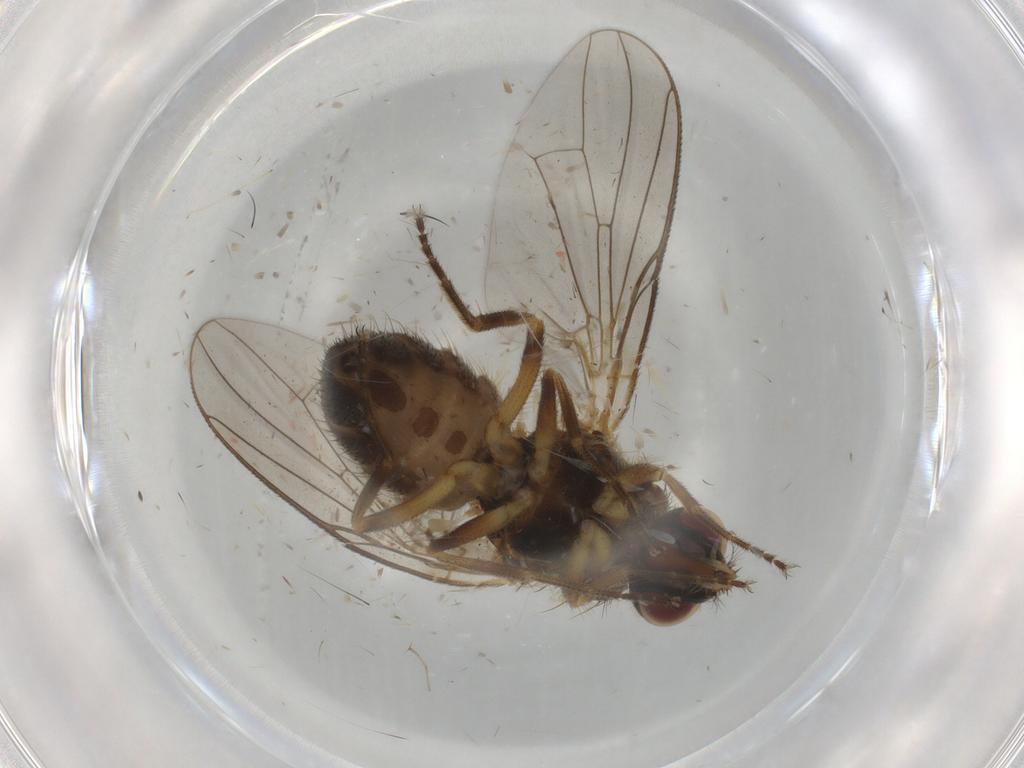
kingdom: Animalia
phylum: Arthropoda
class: Insecta
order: Diptera
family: Muscidae
